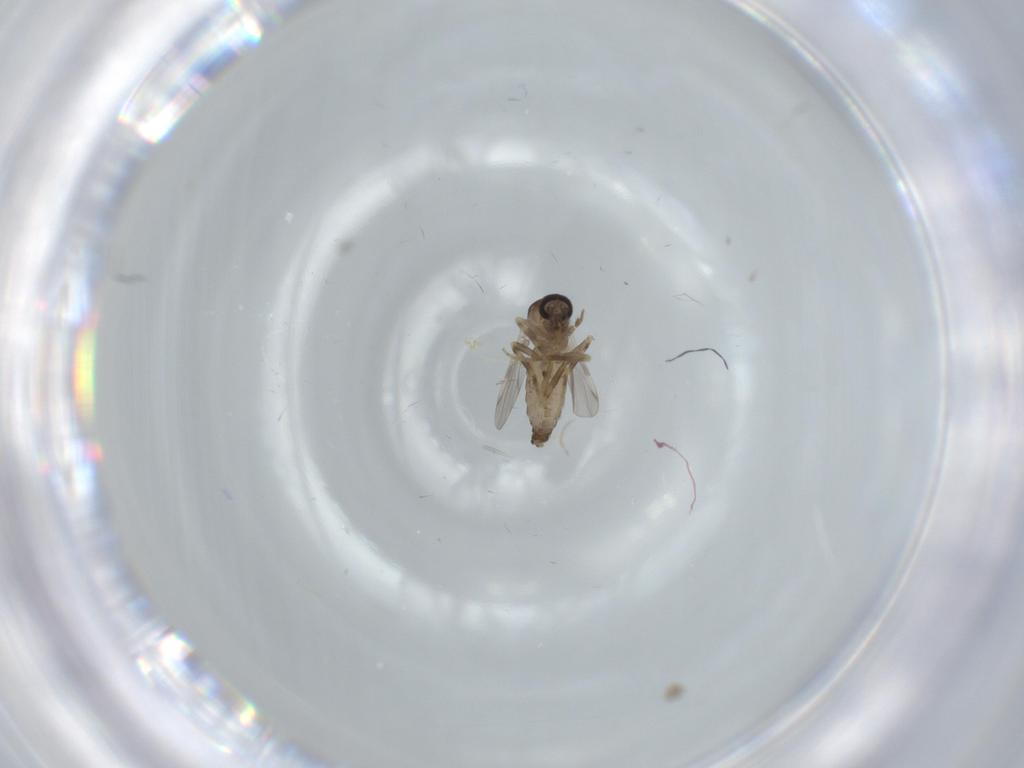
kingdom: Animalia
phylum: Arthropoda
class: Insecta
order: Diptera
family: Ceratopogonidae
